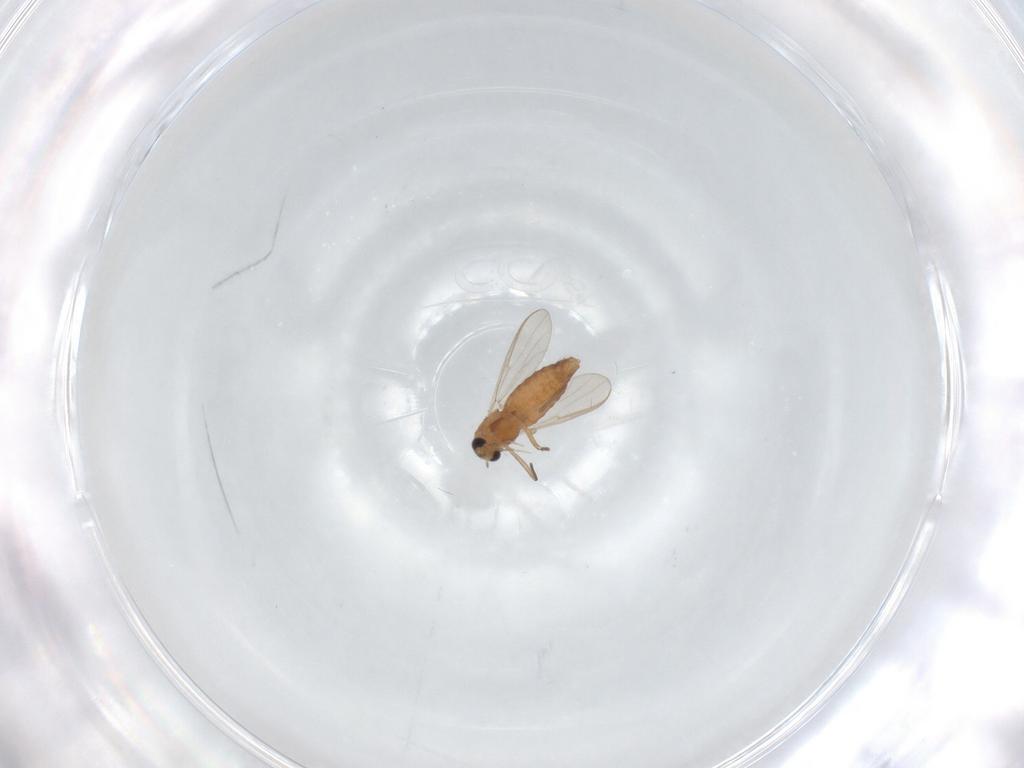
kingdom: Animalia
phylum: Arthropoda
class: Insecta
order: Diptera
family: Chironomidae
